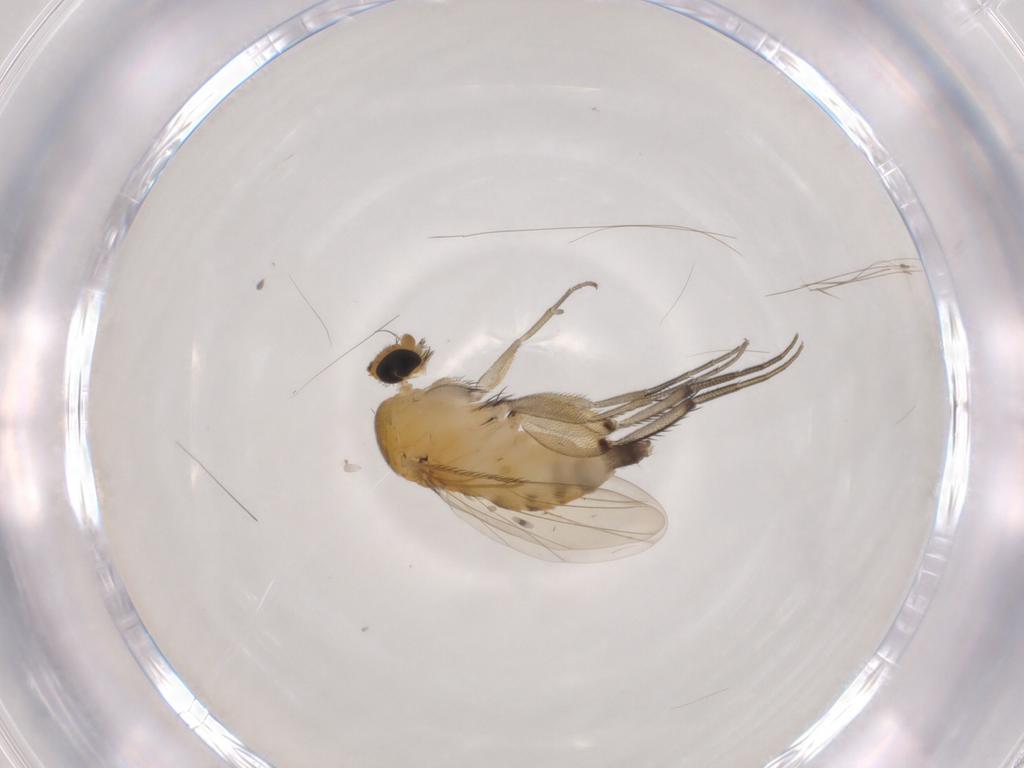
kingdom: Animalia
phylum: Arthropoda
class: Insecta
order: Diptera
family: Phoridae
